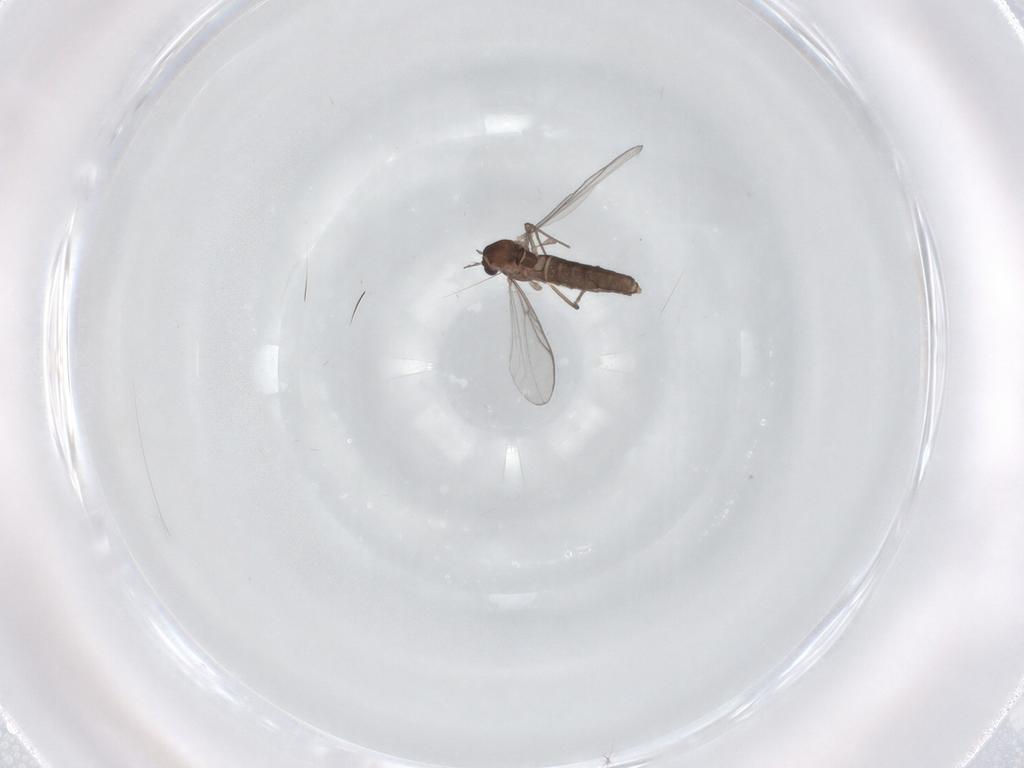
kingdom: Animalia
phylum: Arthropoda
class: Insecta
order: Diptera
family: Chironomidae
